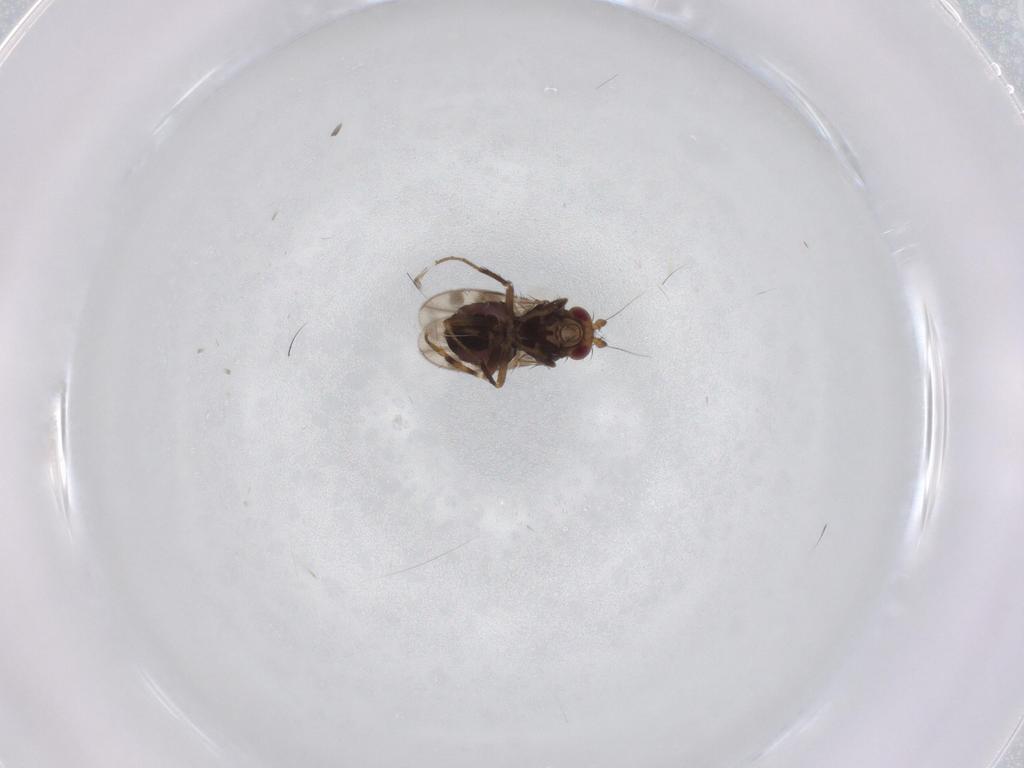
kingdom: Animalia
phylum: Arthropoda
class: Insecta
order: Diptera
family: Sphaeroceridae
